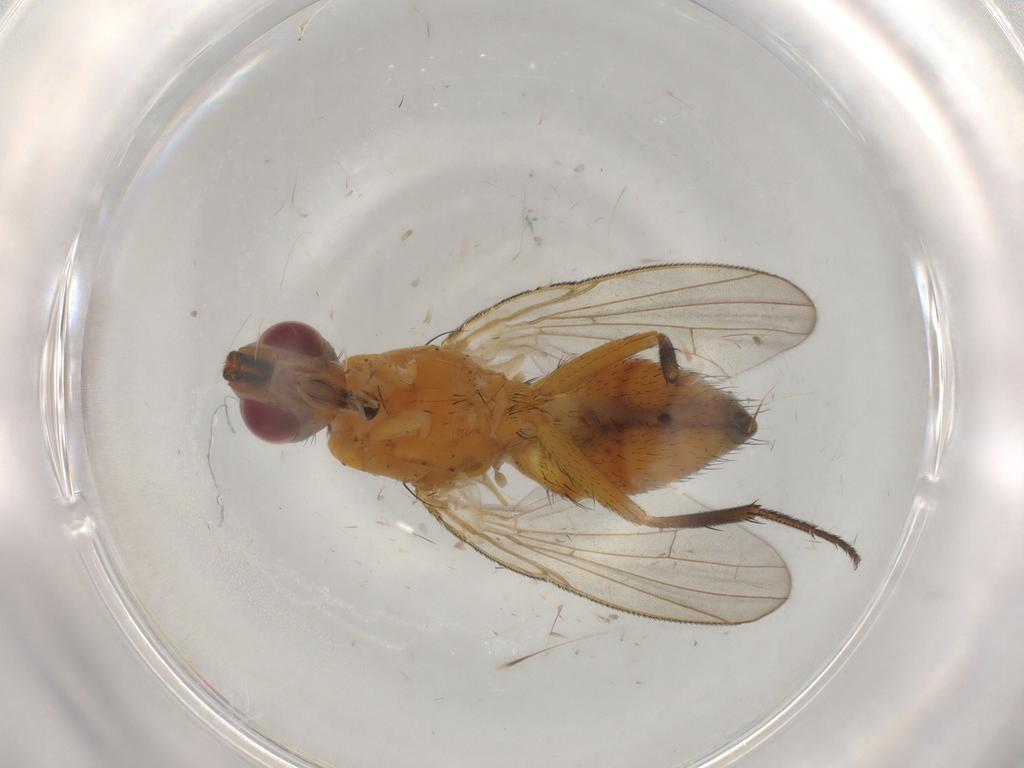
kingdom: Animalia
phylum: Arthropoda
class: Insecta
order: Diptera
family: Muscidae
